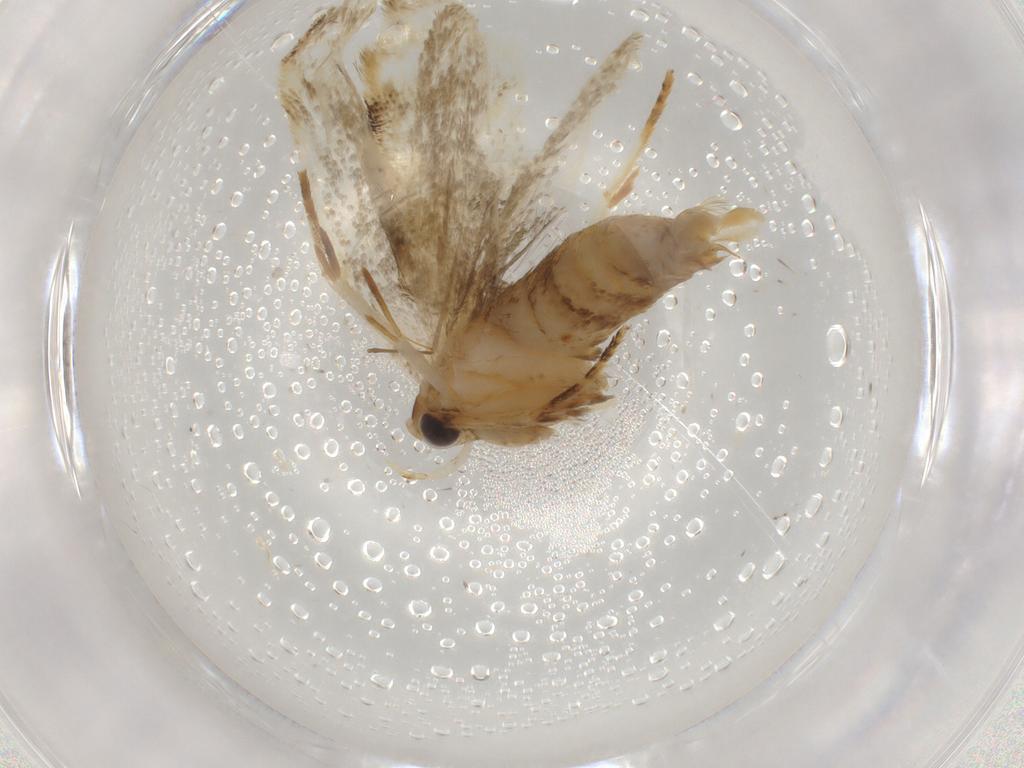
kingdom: Animalia
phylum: Arthropoda
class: Insecta
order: Lepidoptera
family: Gelechiidae
